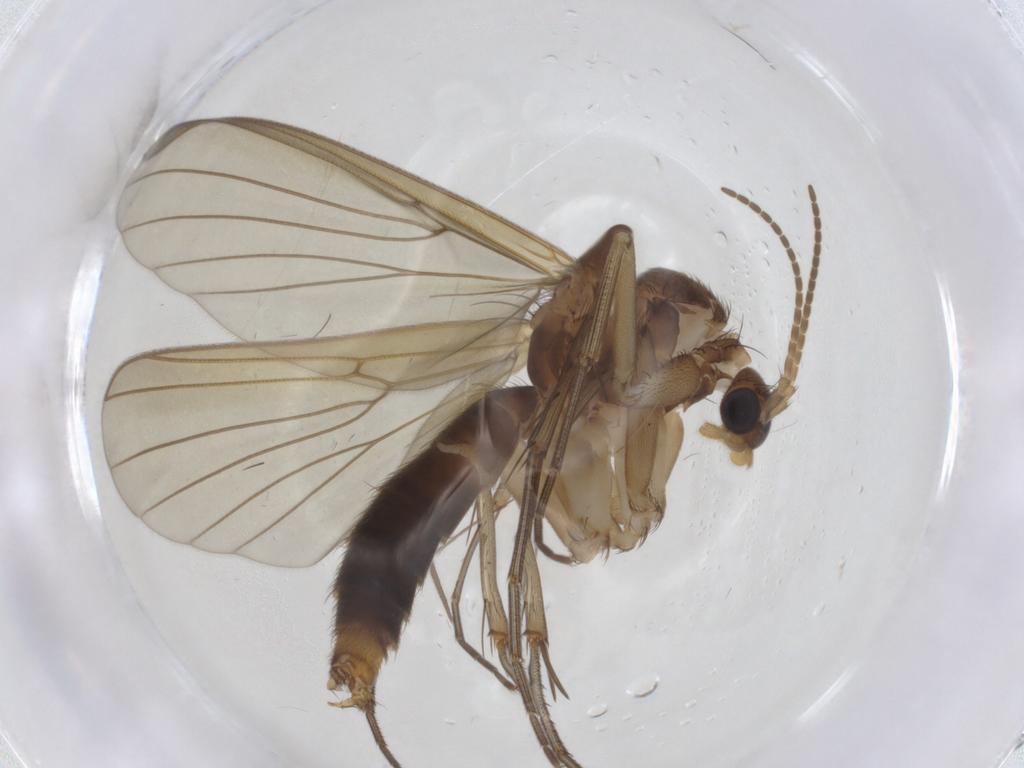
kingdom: Animalia
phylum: Arthropoda
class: Insecta
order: Diptera
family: Mycetophilidae
